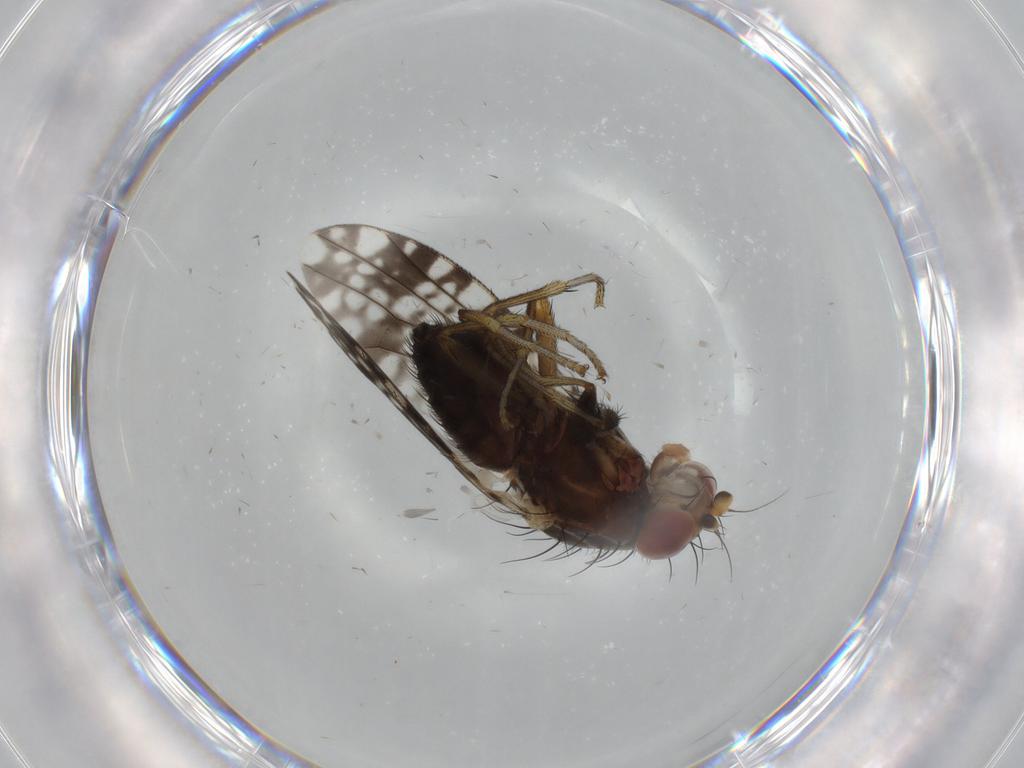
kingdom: Animalia
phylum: Arthropoda
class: Insecta
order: Diptera
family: Tephritidae
